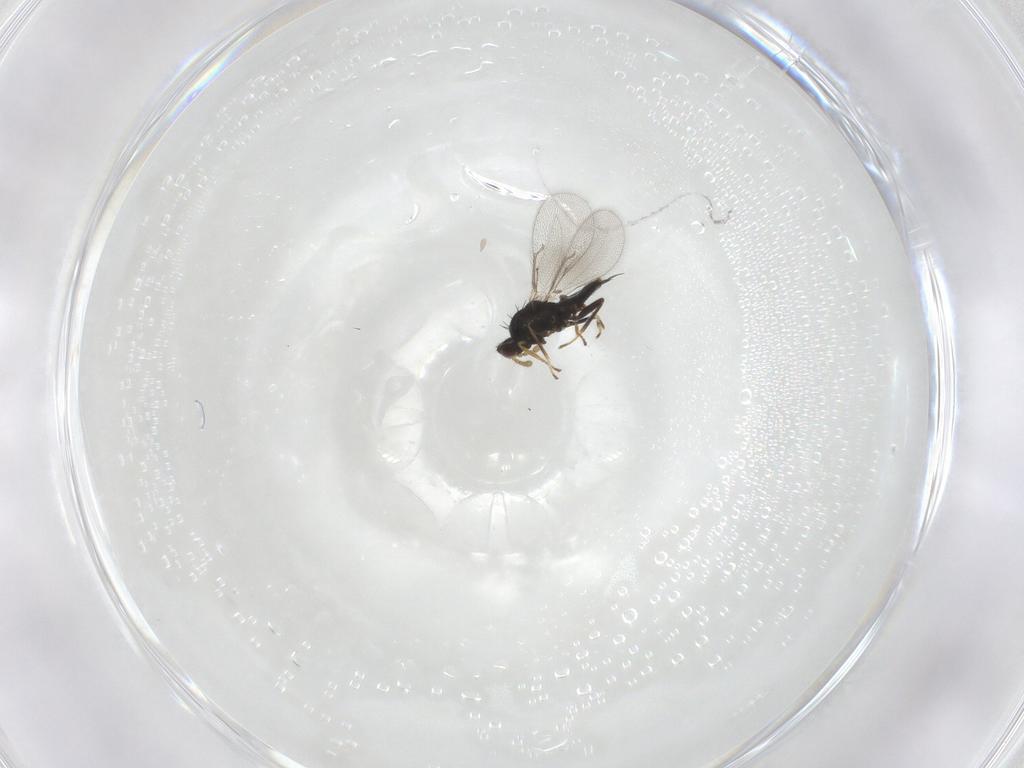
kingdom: Animalia
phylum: Arthropoda
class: Insecta
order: Hymenoptera
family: Eulophidae
